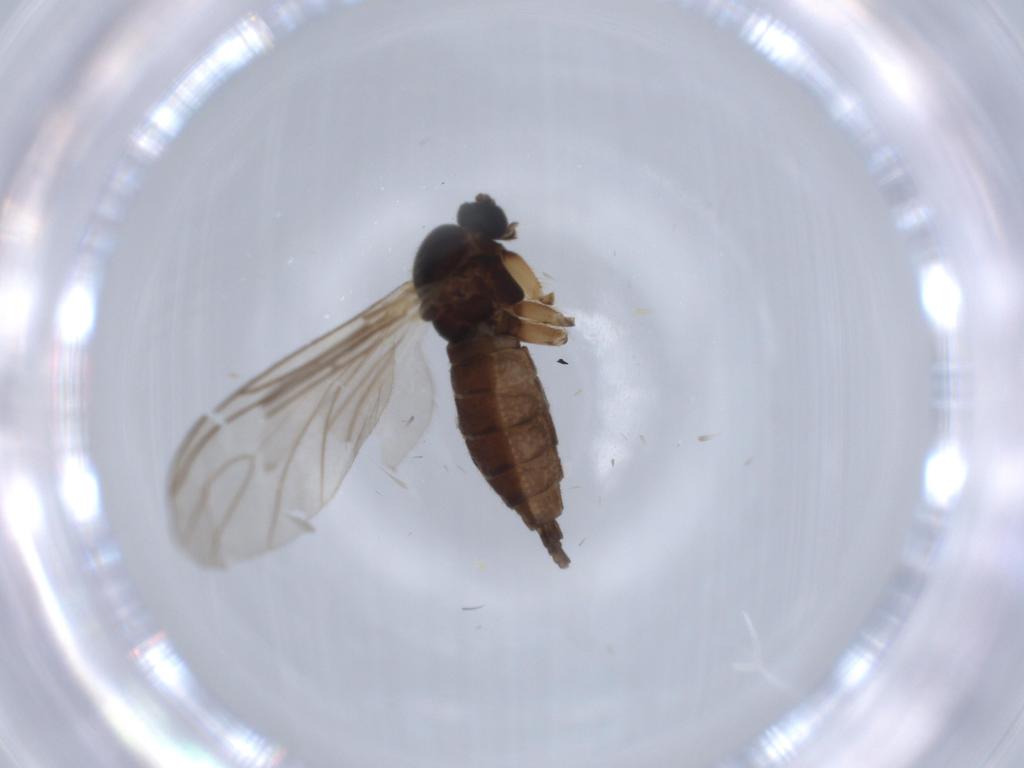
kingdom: Animalia
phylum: Arthropoda
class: Insecta
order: Diptera
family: Sciaridae
